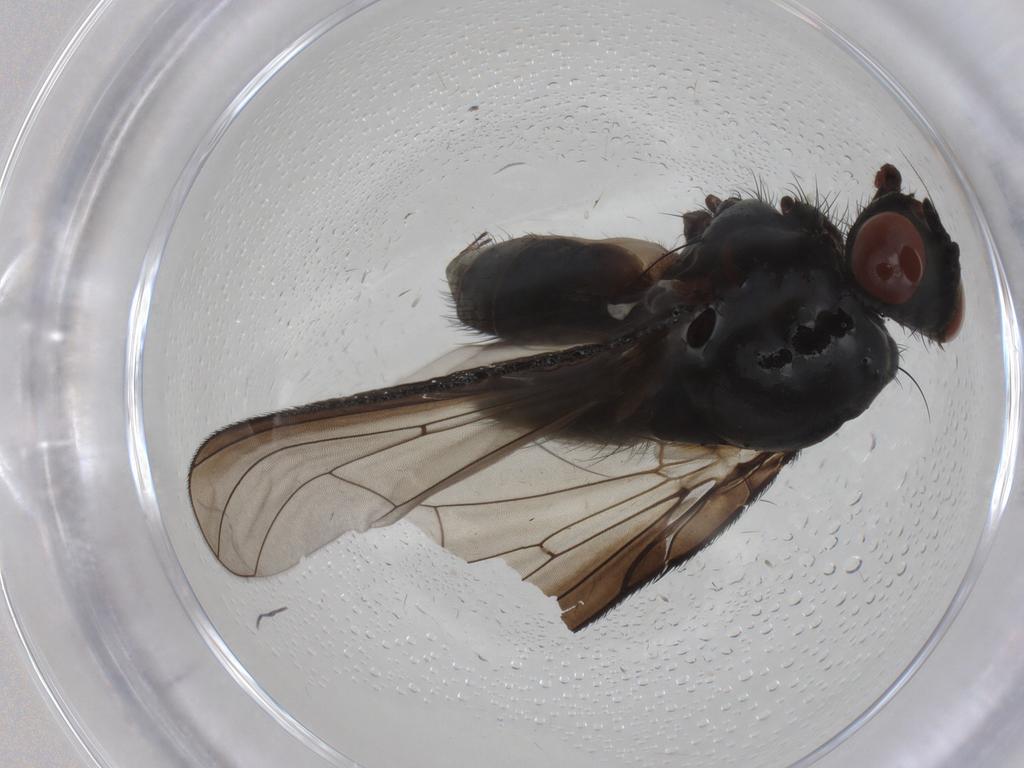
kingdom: Animalia
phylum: Arthropoda
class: Insecta
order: Diptera
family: Anthomyiidae
